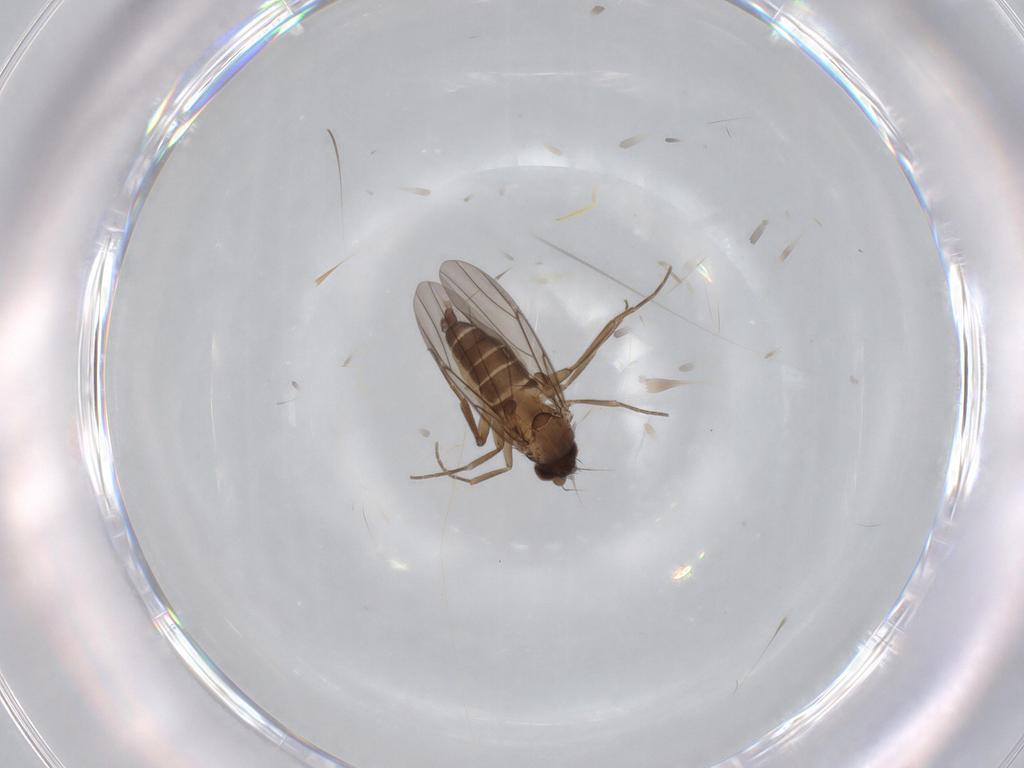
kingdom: Animalia
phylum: Arthropoda
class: Insecta
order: Diptera
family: Phoridae
